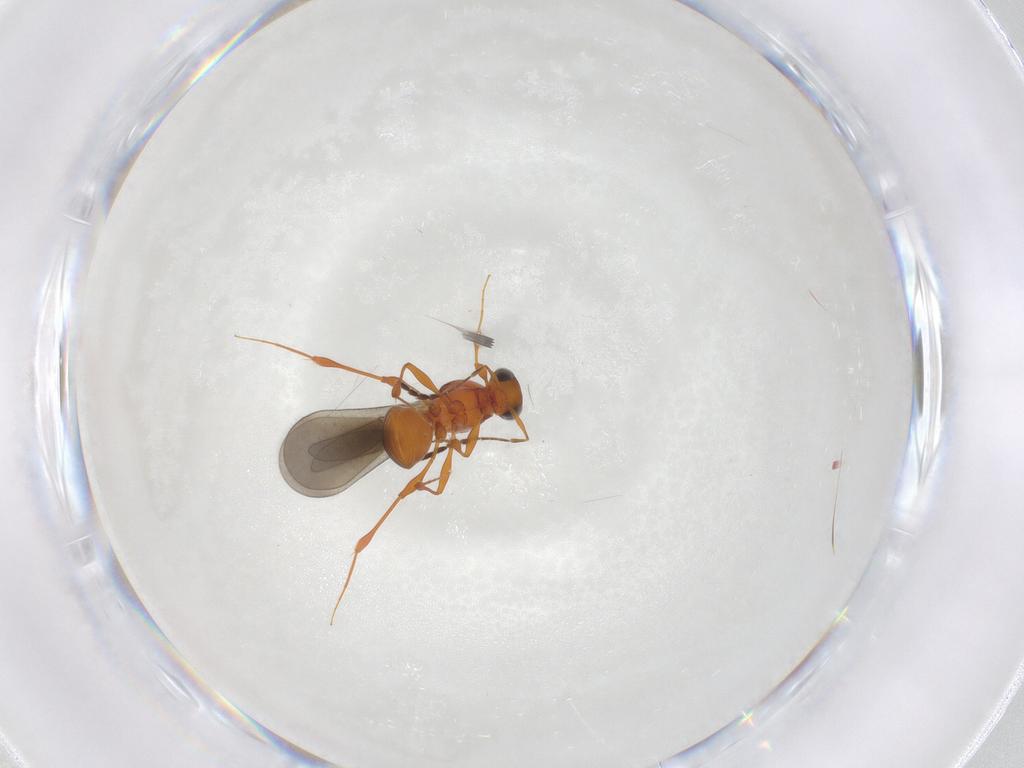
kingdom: Animalia
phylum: Arthropoda
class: Insecta
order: Hymenoptera
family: Platygastridae
